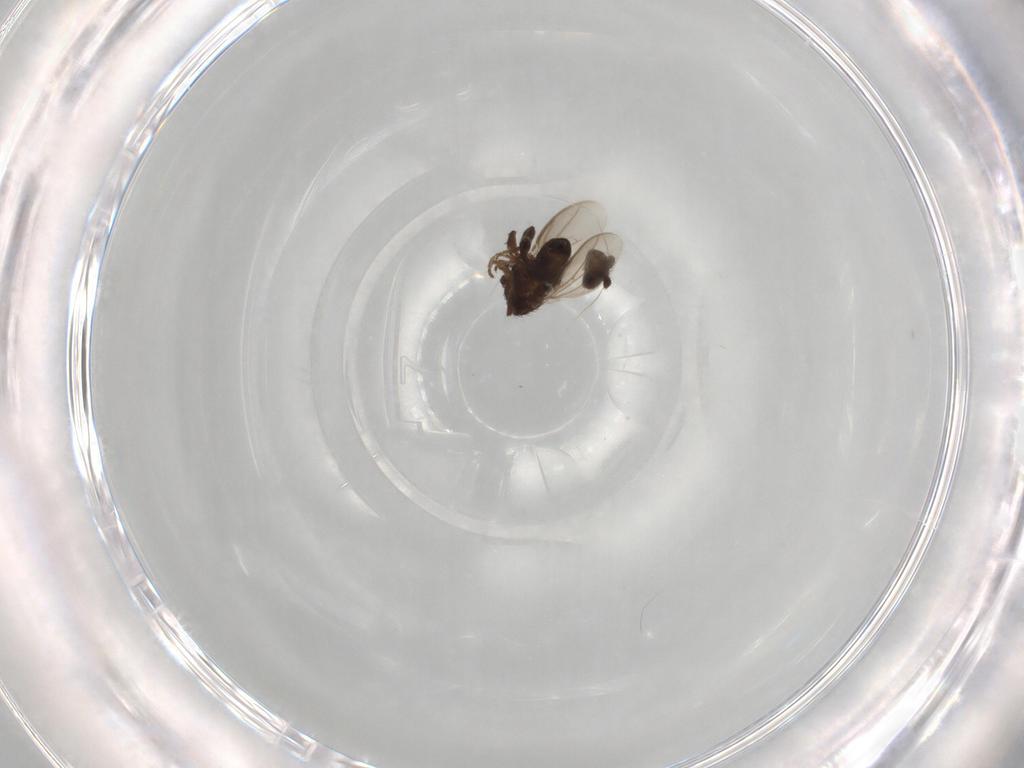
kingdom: Animalia
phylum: Arthropoda
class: Insecta
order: Diptera
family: Sphaeroceridae
